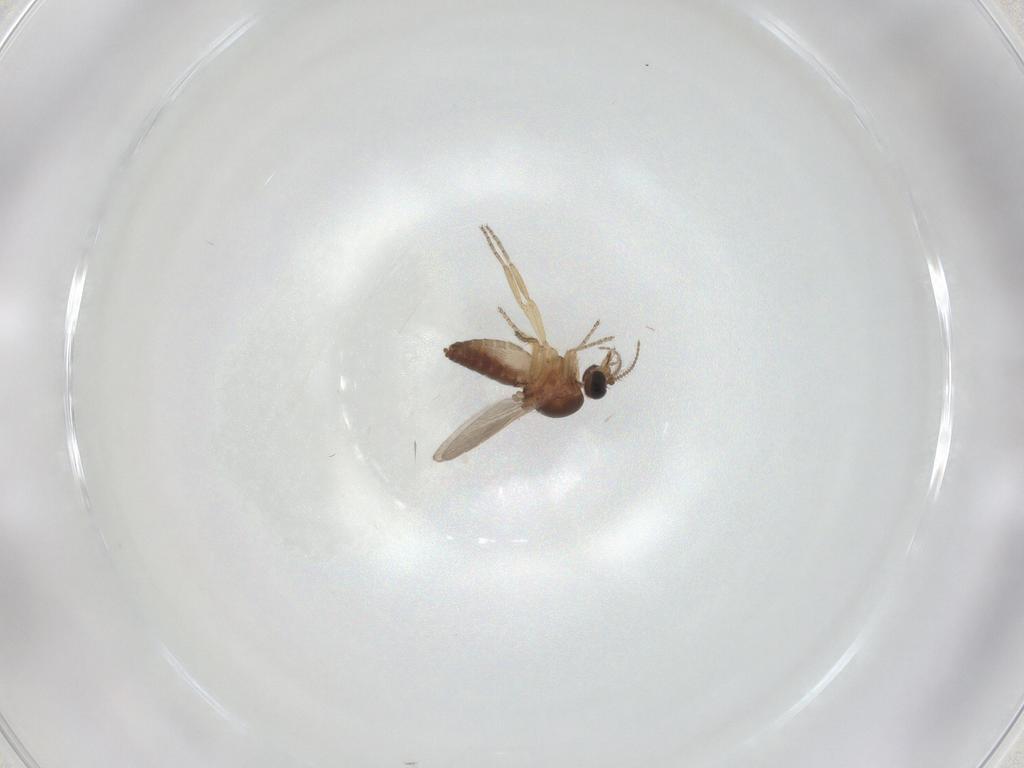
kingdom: Animalia
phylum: Arthropoda
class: Insecta
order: Diptera
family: Ceratopogonidae
